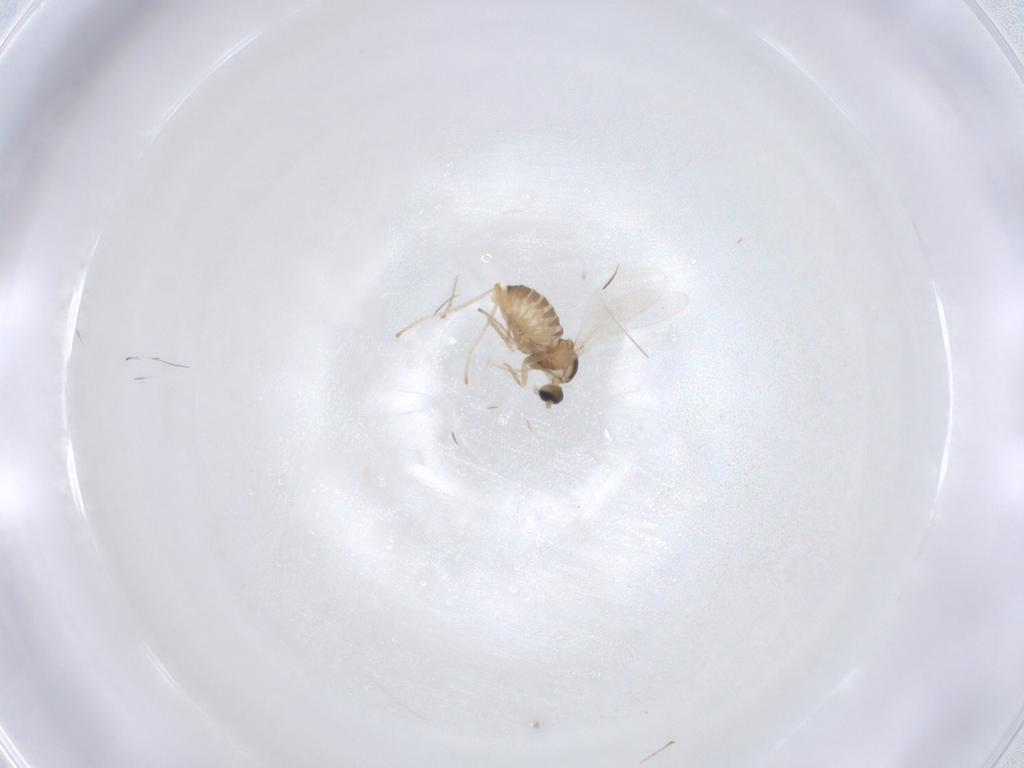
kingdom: Animalia
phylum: Arthropoda
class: Insecta
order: Diptera
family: Cecidomyiidae
